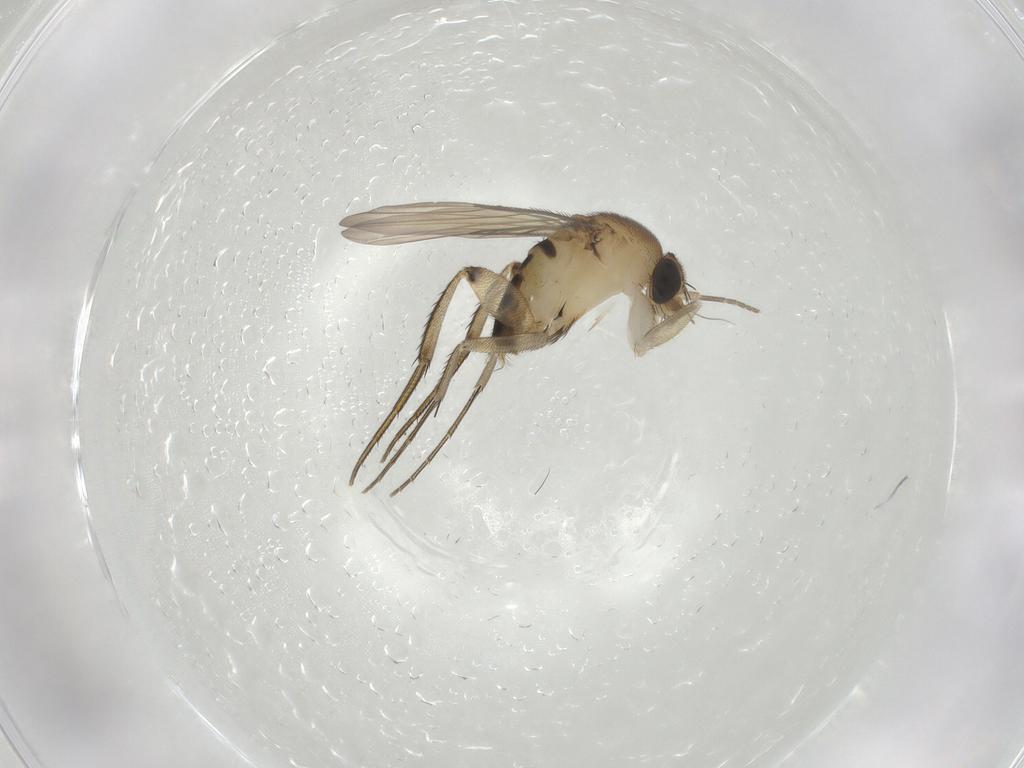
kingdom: Animalia
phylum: Arthropoda
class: Insecta
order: Diptera
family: Phoridae
